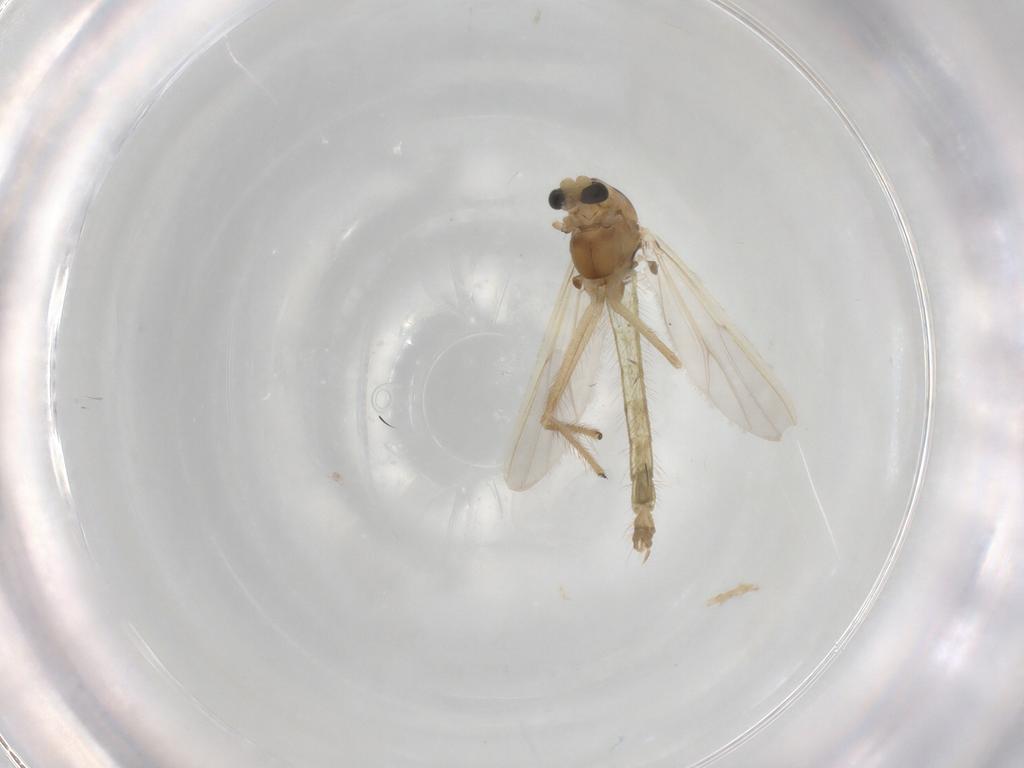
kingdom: Animalia
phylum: Arthropoda
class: Insecta
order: Diptera
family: Chironomidae
